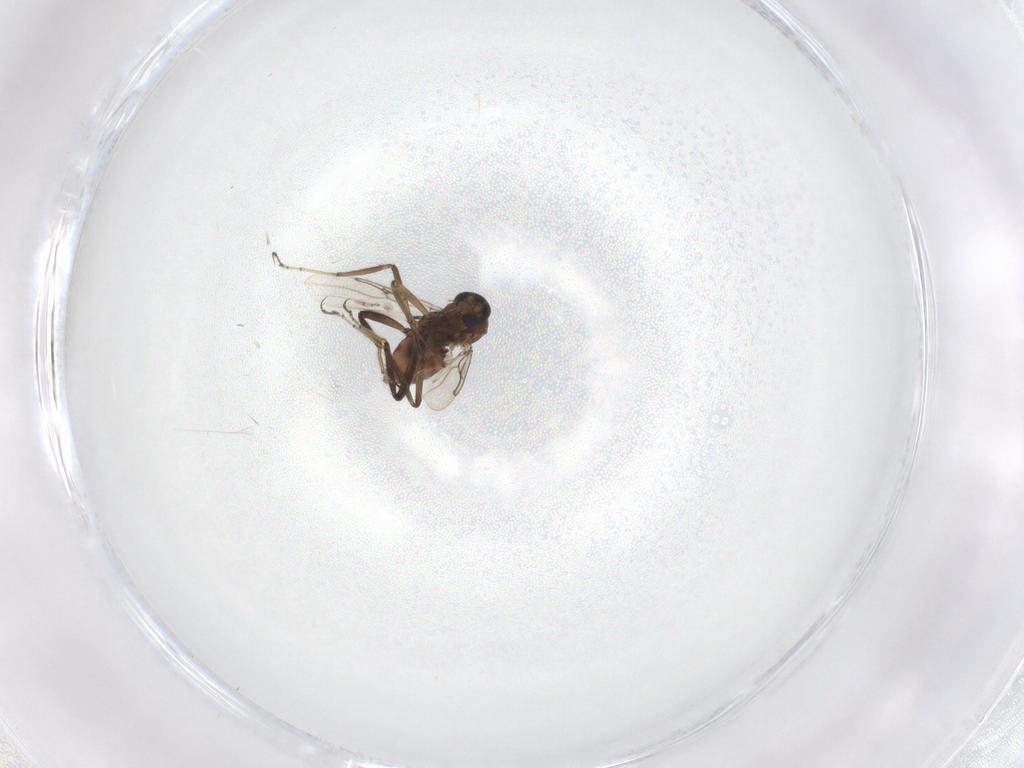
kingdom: Animalia
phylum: Arthropoda
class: Insecta
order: Diptera
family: Ceratopogonidae
